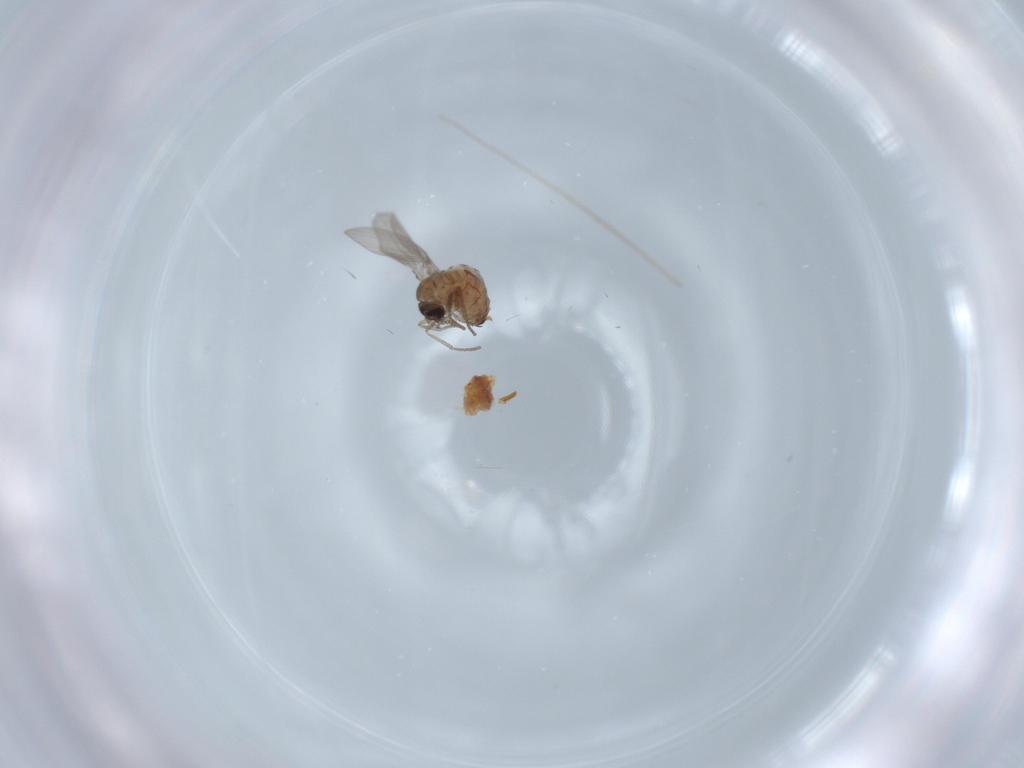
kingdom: Animalia
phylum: Arthropoda
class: Insecta
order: Diptera
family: Psychodidae
